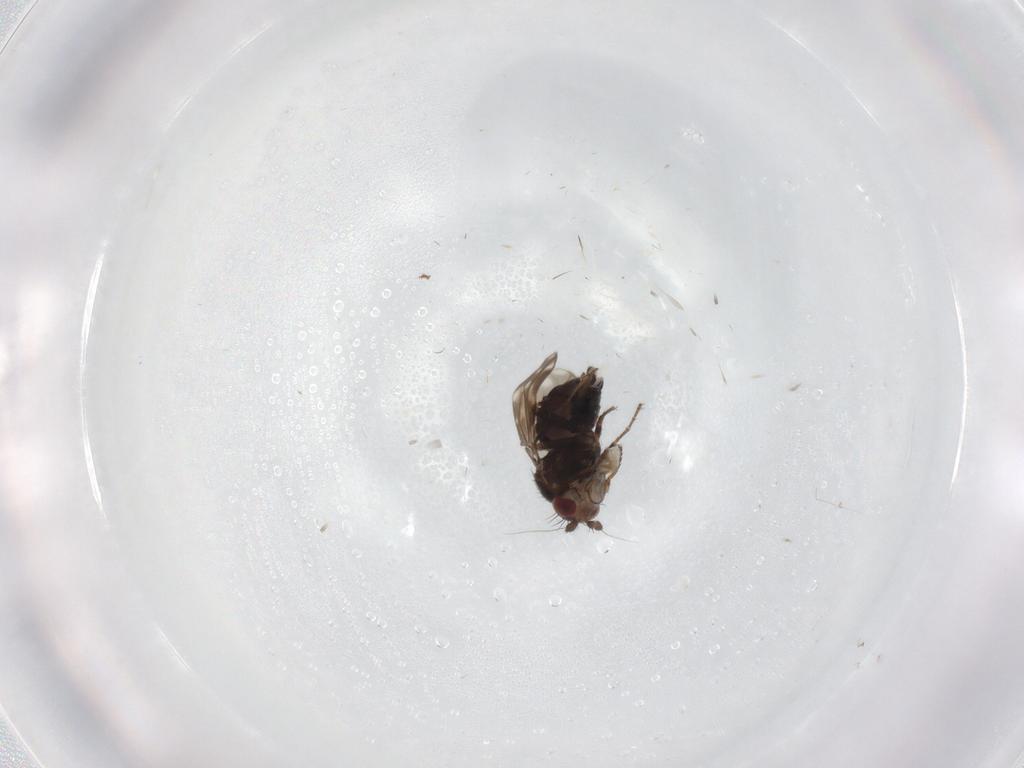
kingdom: Animalia
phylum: Arthropoda
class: Insecta
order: Diptera
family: Sphaeroceridae
